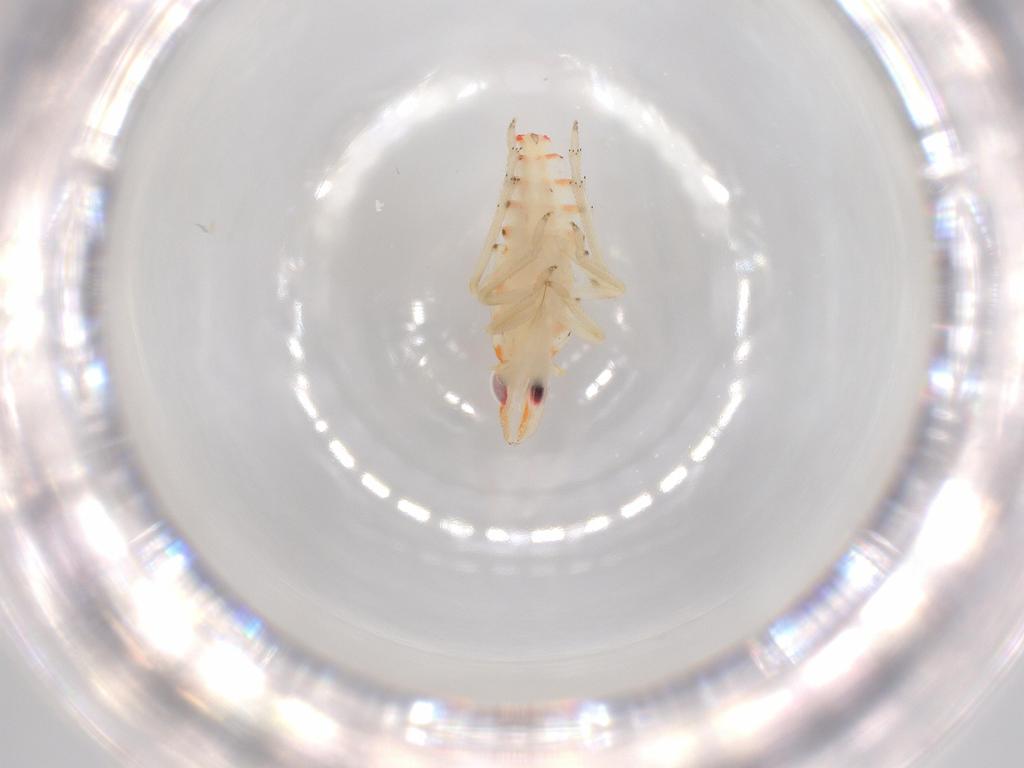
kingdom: Animalia
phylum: Arthropoda
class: Insecta
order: Hemiptera
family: Tropiduchidae
